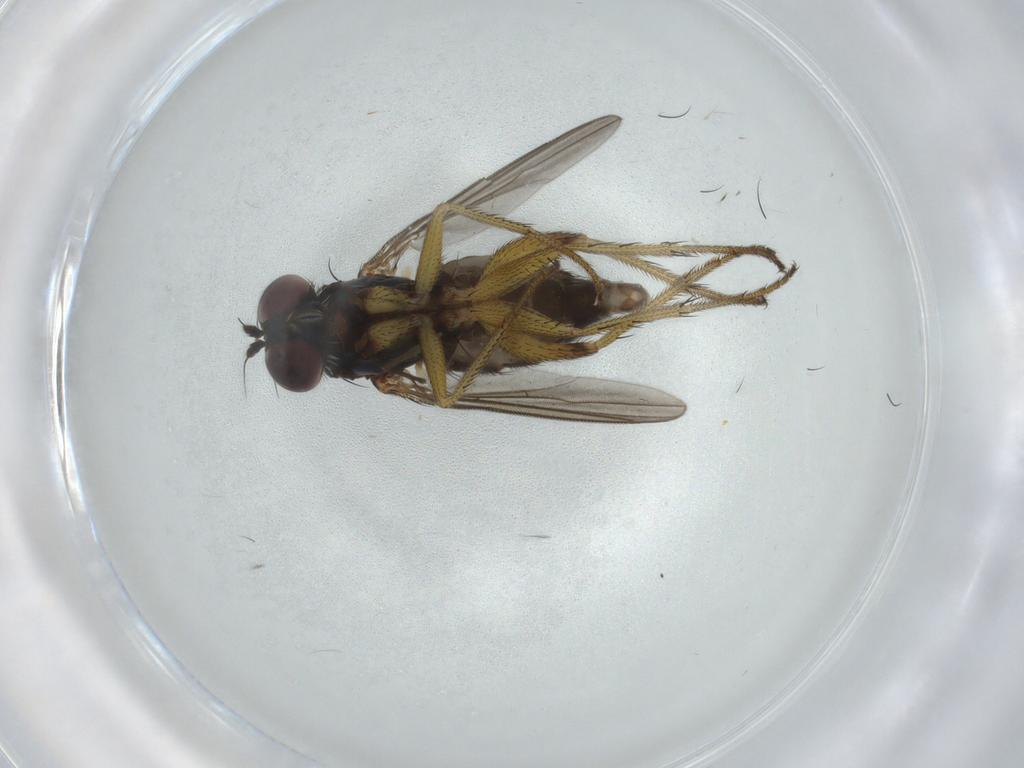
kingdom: Animalia
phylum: Arthropoda
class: Insecta
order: Diptera
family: Dolichopodidae
